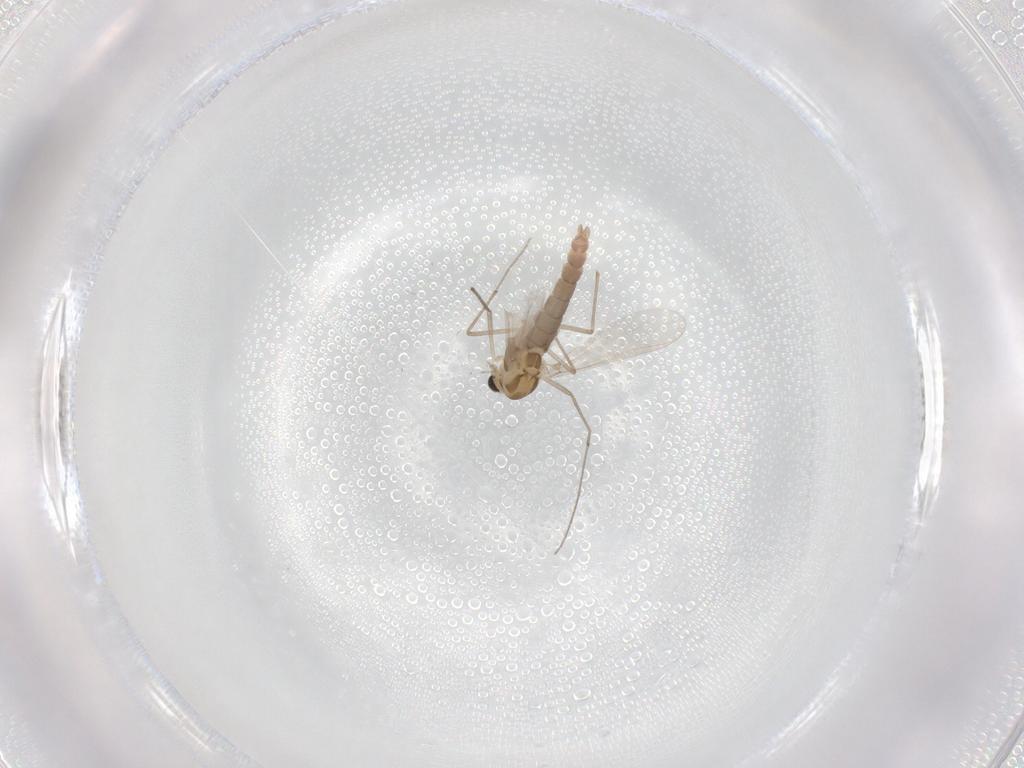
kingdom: Animalia
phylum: Arthropoda
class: Insecta
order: Diptera
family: Chironomidae
